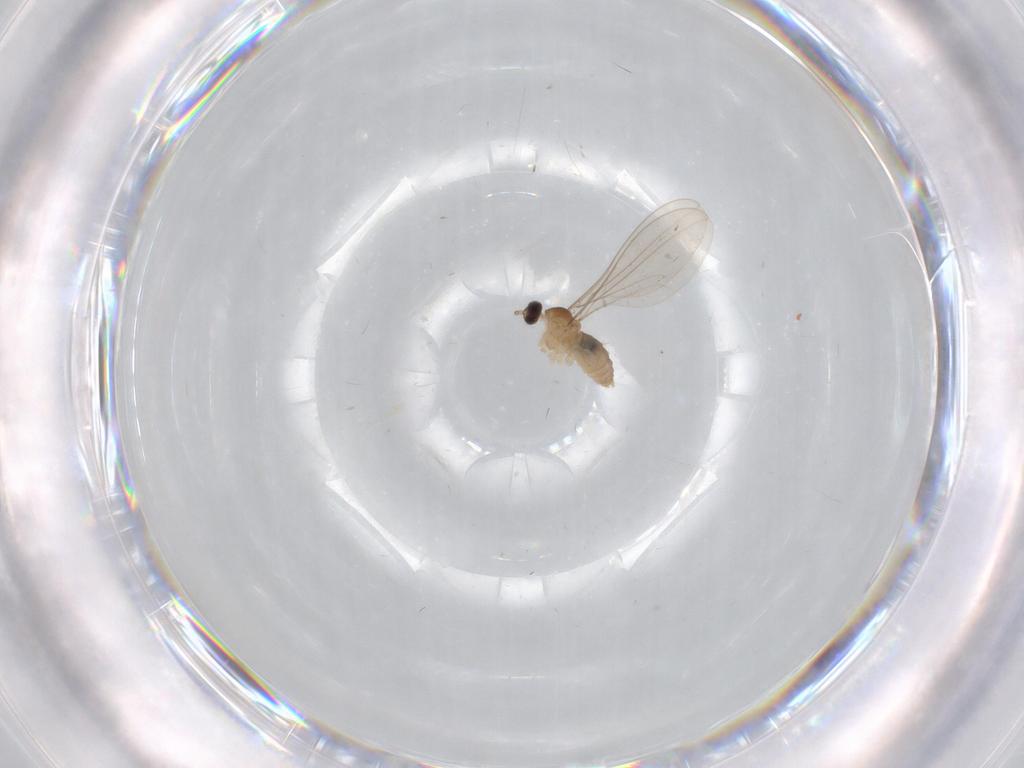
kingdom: Animalia
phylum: Arthropoda
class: Insecta
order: Diptera
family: Cecidomyiidae
